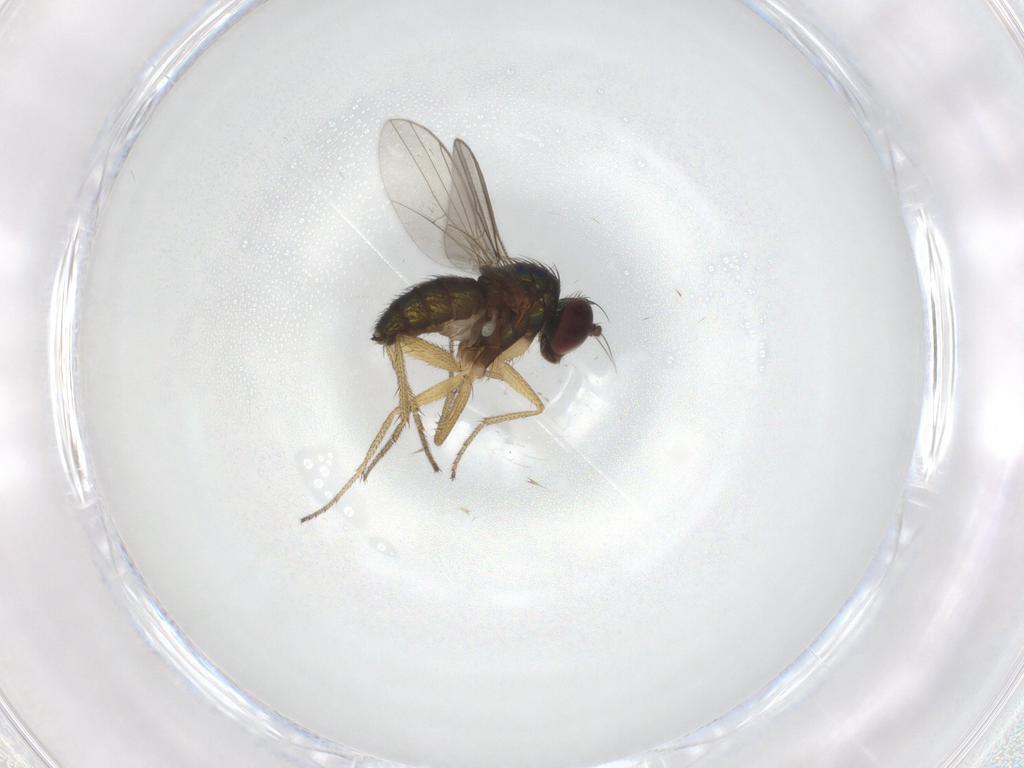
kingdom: Animalia
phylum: Arthropoda
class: Insecta
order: Diptera
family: Dolichopodidae
